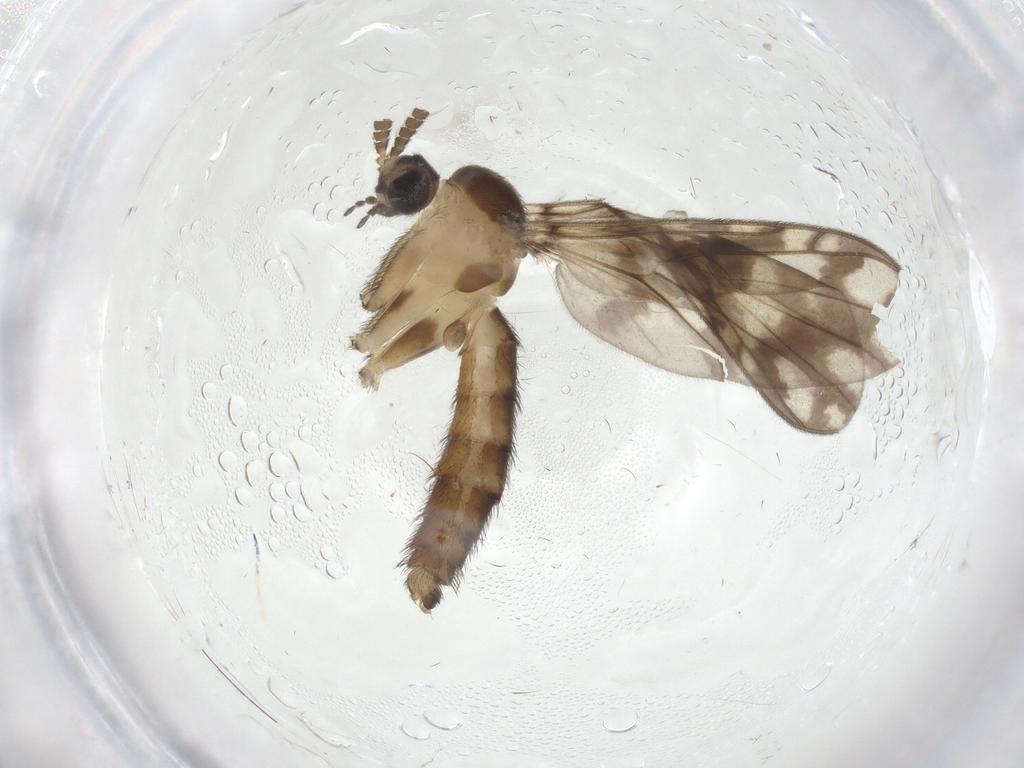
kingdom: Animalia
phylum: Arthropoda
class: Insecta
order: Diptera
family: Keroplatidae
